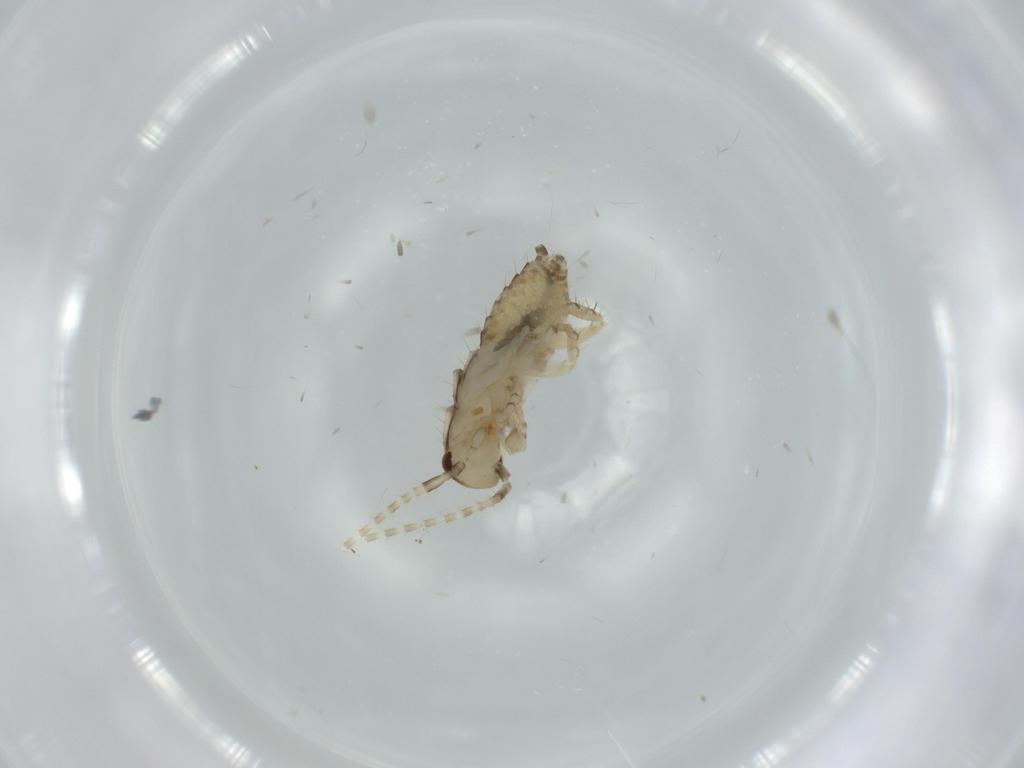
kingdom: Animalia
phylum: Arthropoda
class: Insecta
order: Blattodea
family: Ectobiidae
